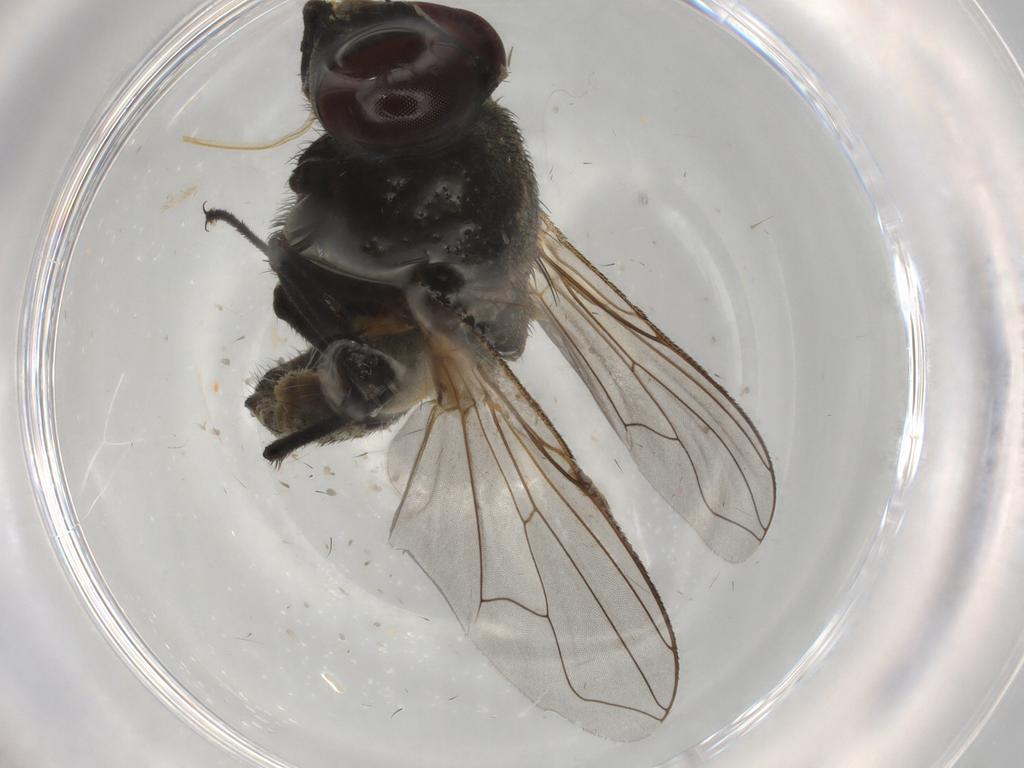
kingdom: Animalia
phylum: Arthropoda
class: Insecta
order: Diptera
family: Muscidae
